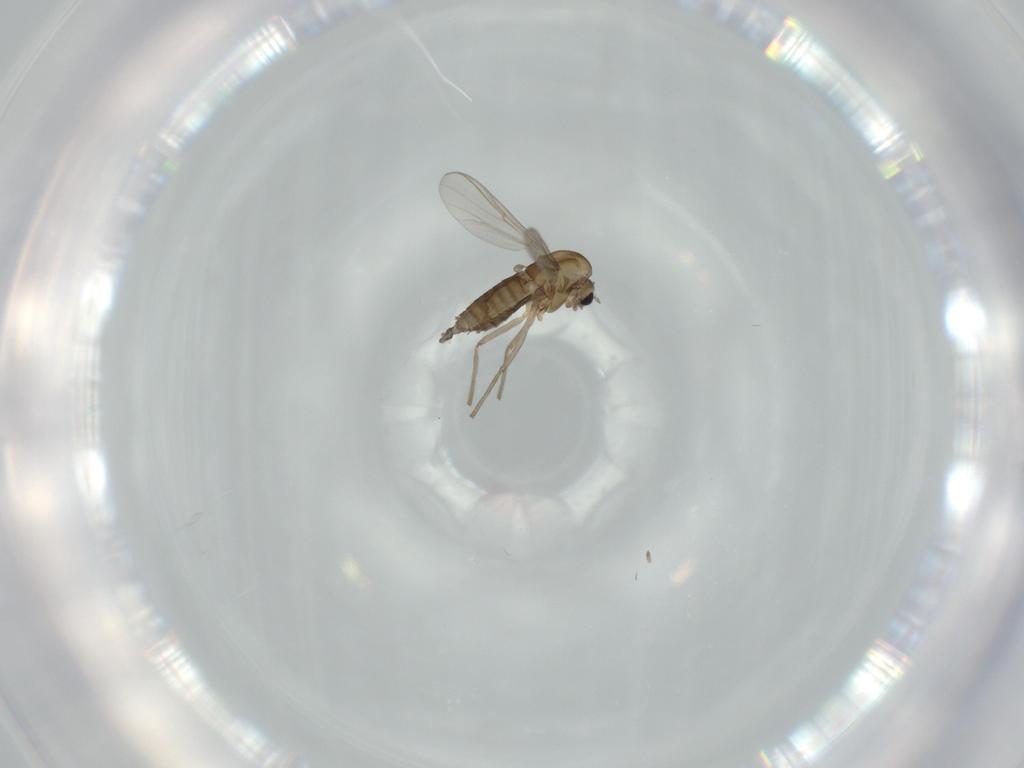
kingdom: Animalia
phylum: Arthropoda
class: Insecta
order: Diptera
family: Chironomidae
